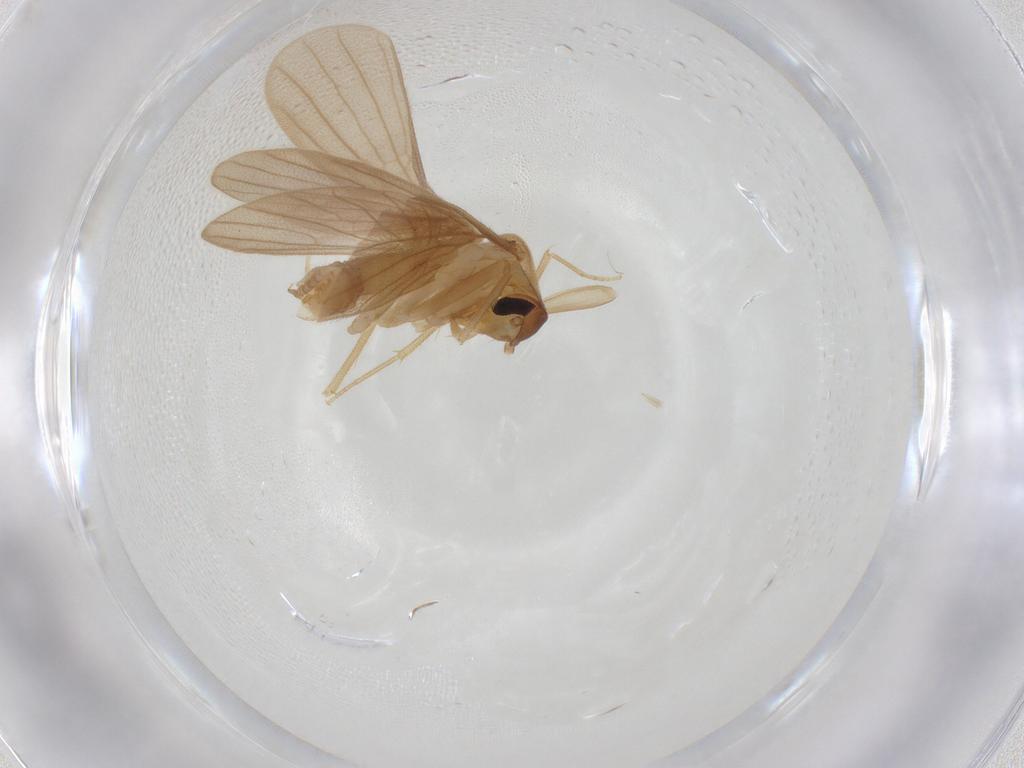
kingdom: Animalia
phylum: Arthropoda
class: Insecta
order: Blattodea
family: Nocticolidae
